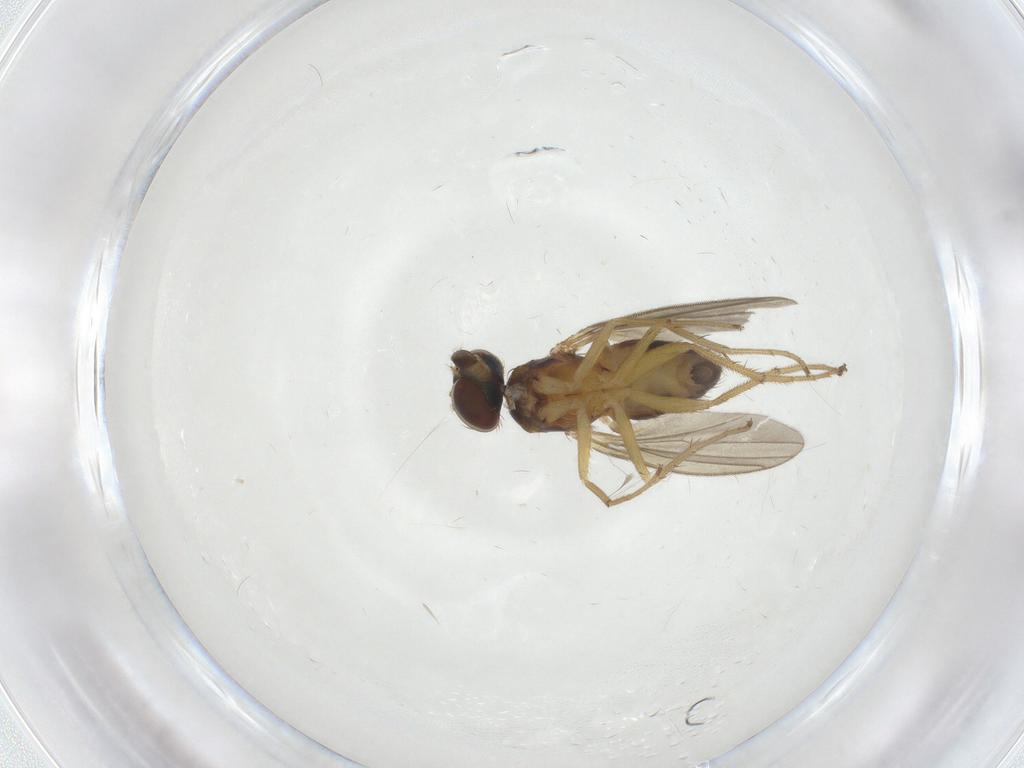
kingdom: Animalia
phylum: Arthropoda
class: Insecta
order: Diptera
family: Dolichopodidae
